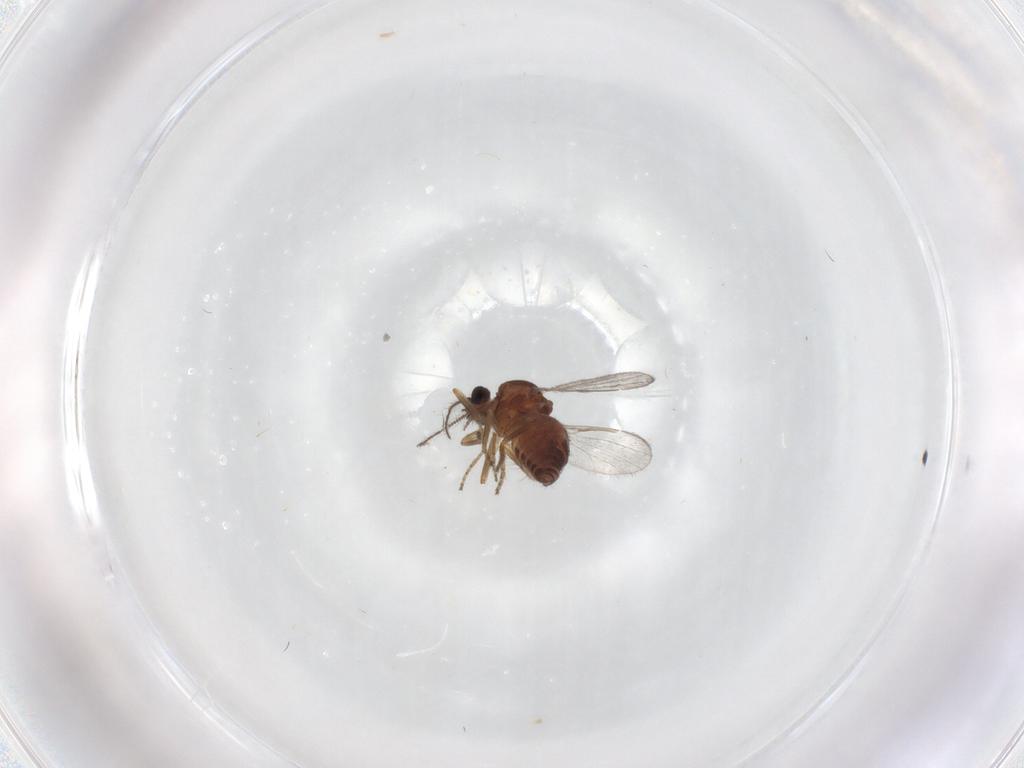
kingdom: Animalia
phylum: Arthropoda
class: Insecta
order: Diptera
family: Ceratopogonidae
